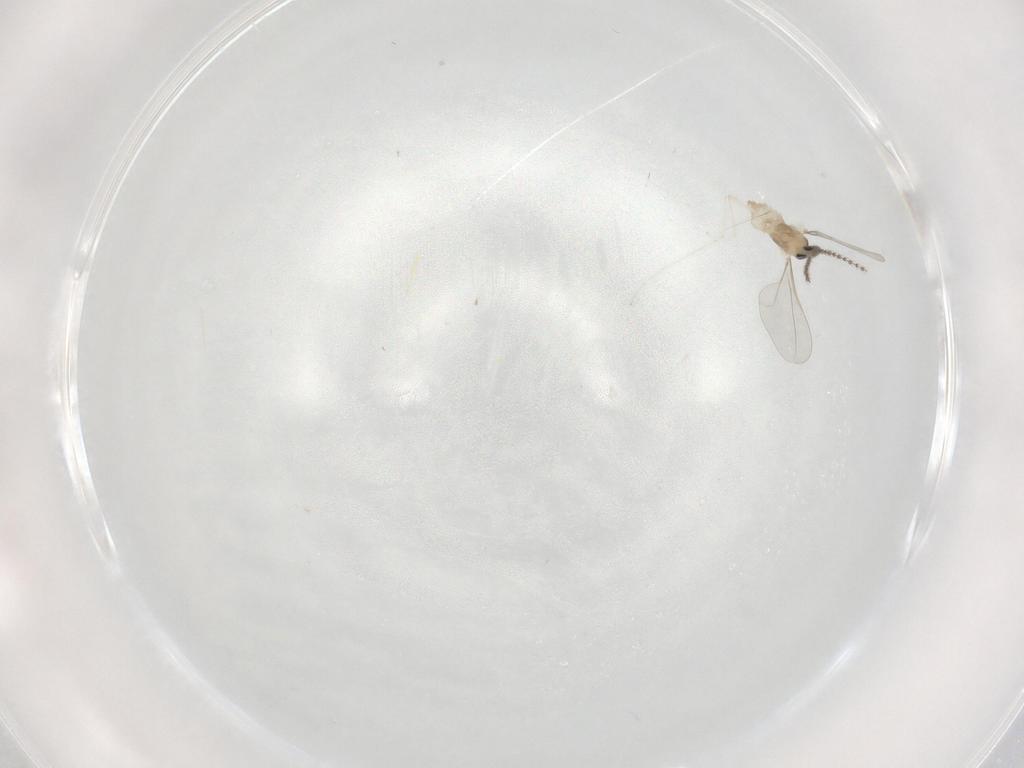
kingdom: Animalia
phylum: Arthropoda
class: Insecta
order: Diptera
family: Cecidomyiidae
